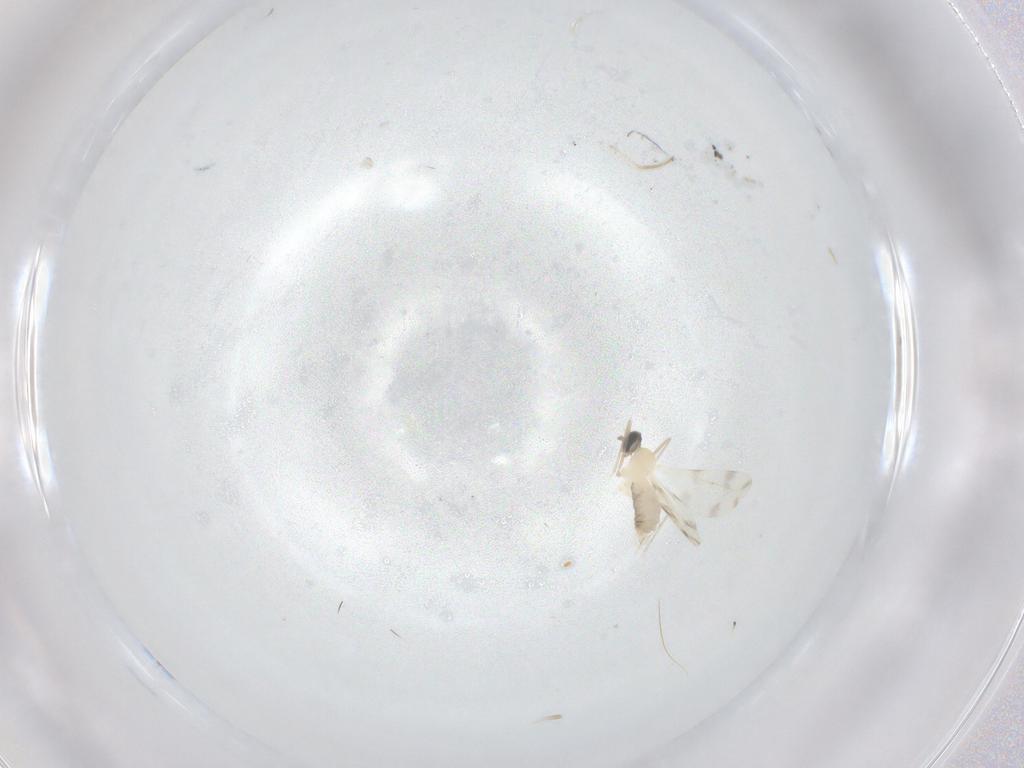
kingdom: Animalia
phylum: Arthropoda
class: Insecta
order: Diptera
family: Cecidomyiidae
